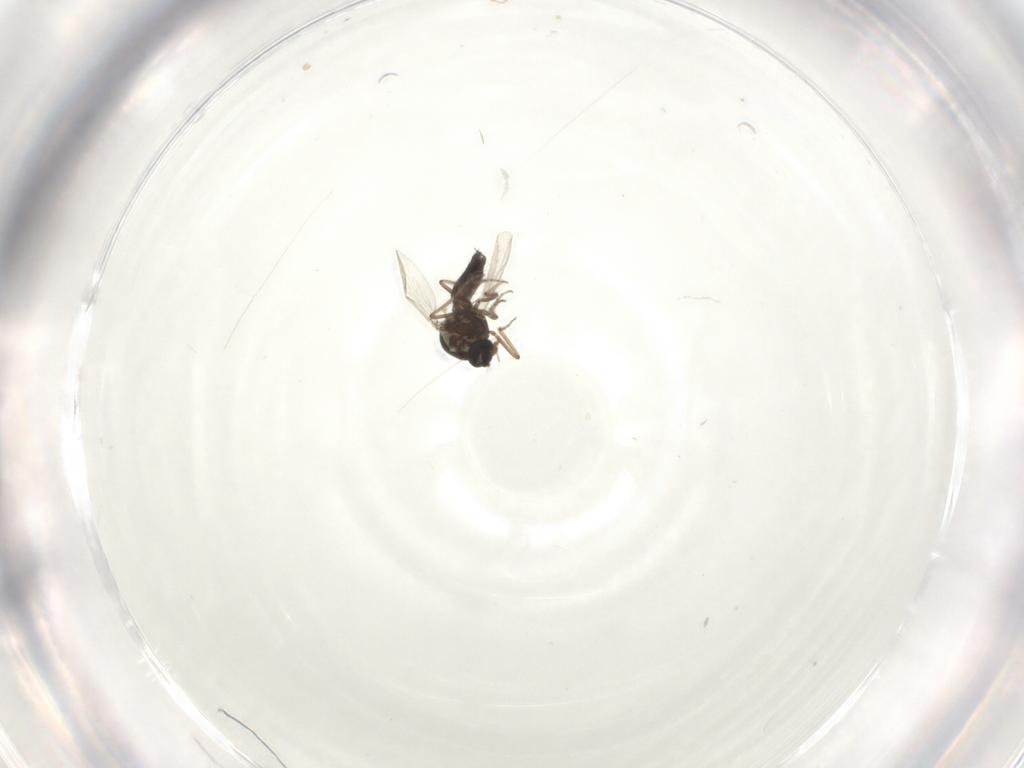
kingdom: Animalia
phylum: Arthropoda
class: Insecta
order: Diptera
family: Ceratopogonidae
